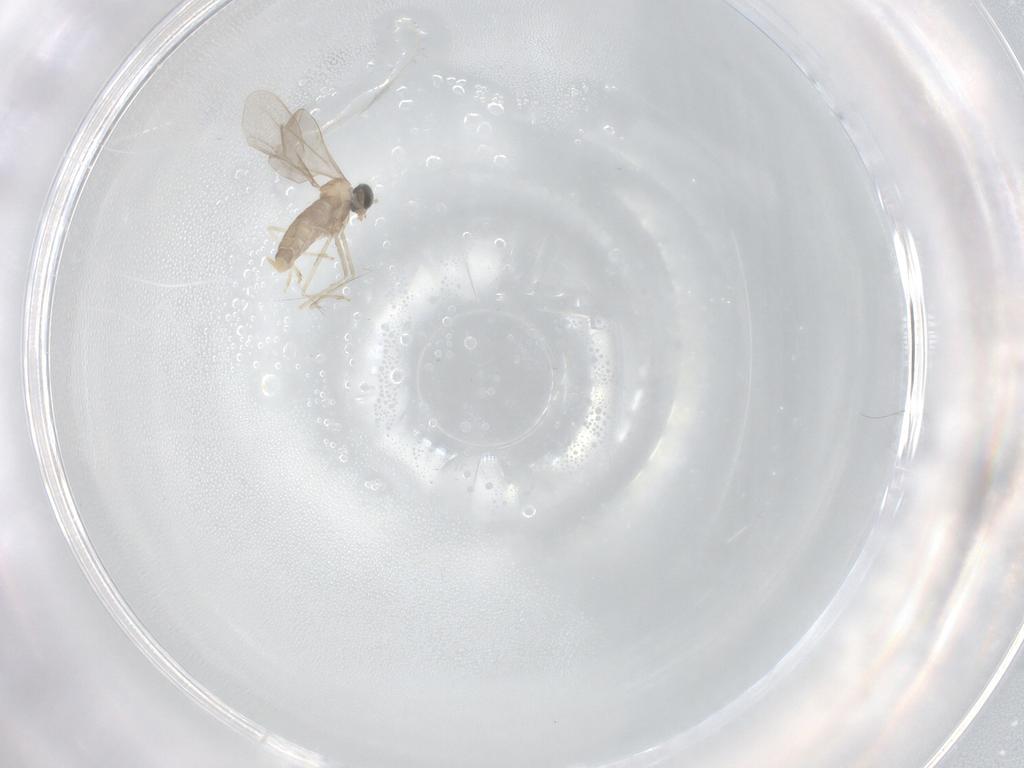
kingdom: Animalia
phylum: Arthropoda
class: Insecta
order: Diptera
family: Cecidomyiidae
